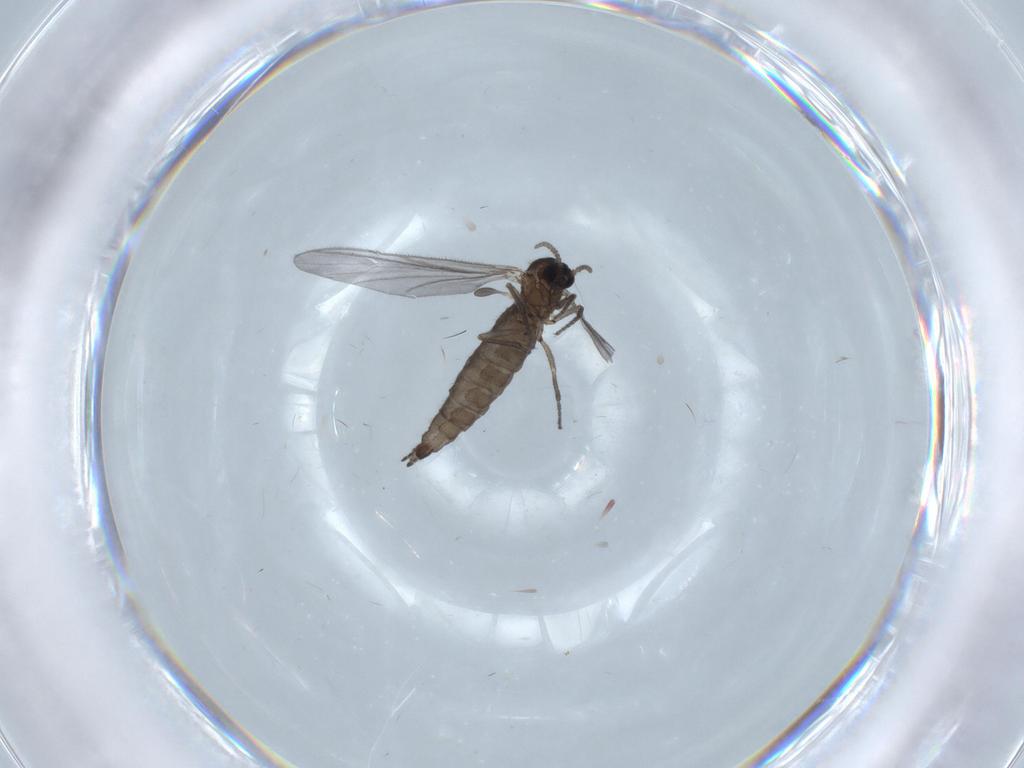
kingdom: Animalia
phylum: Arthropoda
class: Insecta
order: Diptera
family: Sciaridae
